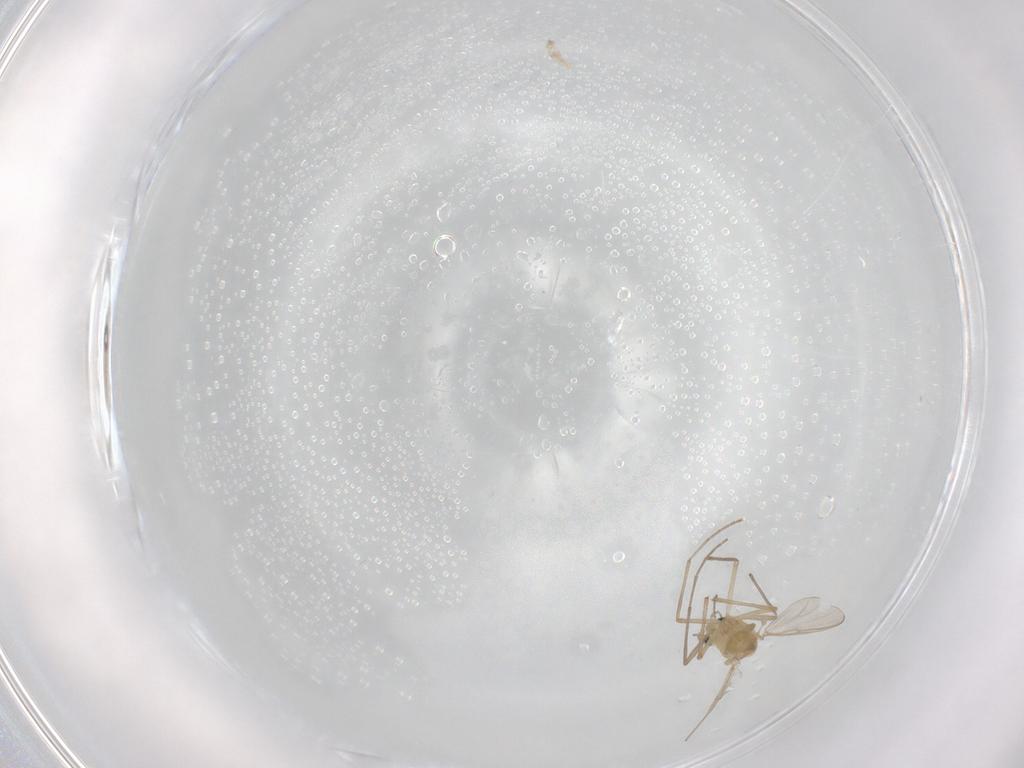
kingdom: Animalia
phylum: Arthropoda
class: Insecta
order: Diptera
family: Chironomidae
